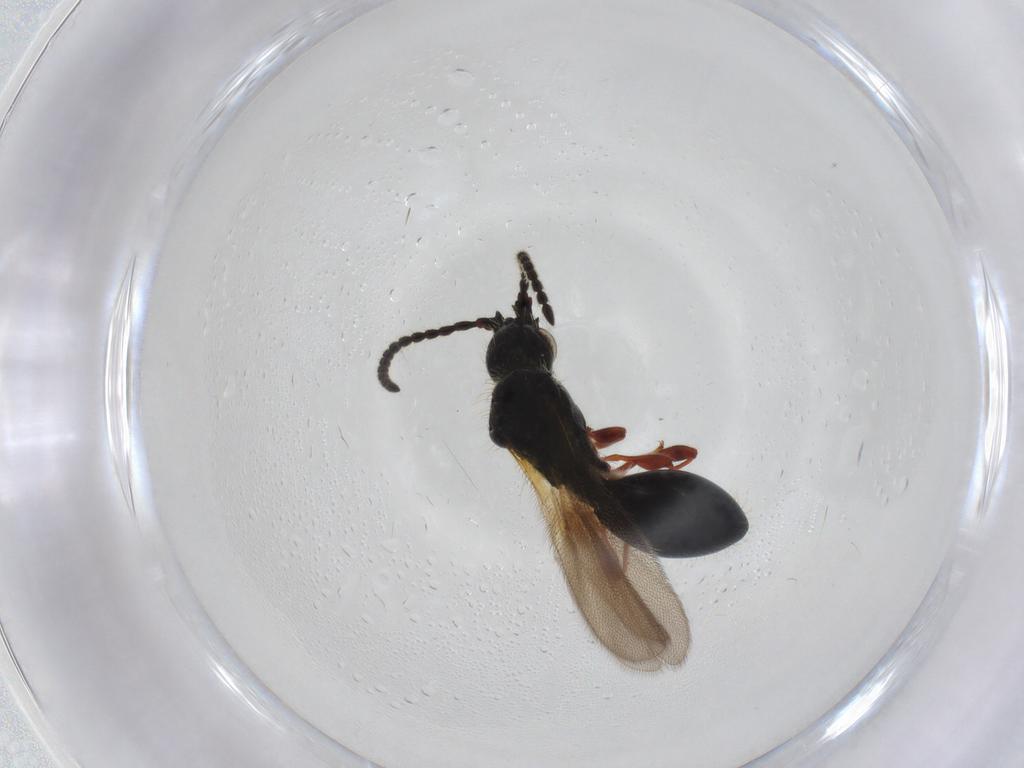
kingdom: Animalia
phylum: Arthropoda
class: Insecta
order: Hymenoptera
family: Diapriidae
